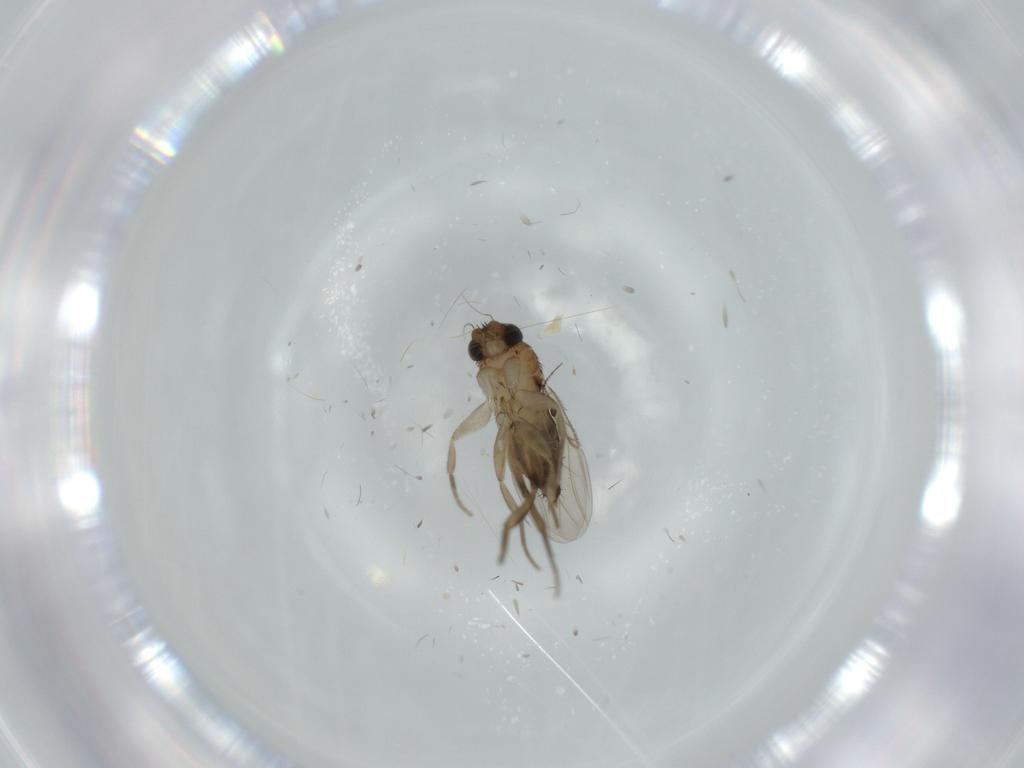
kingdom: Animalia
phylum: Arthropoda
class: Insecta
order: Diptera
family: Phoridae
